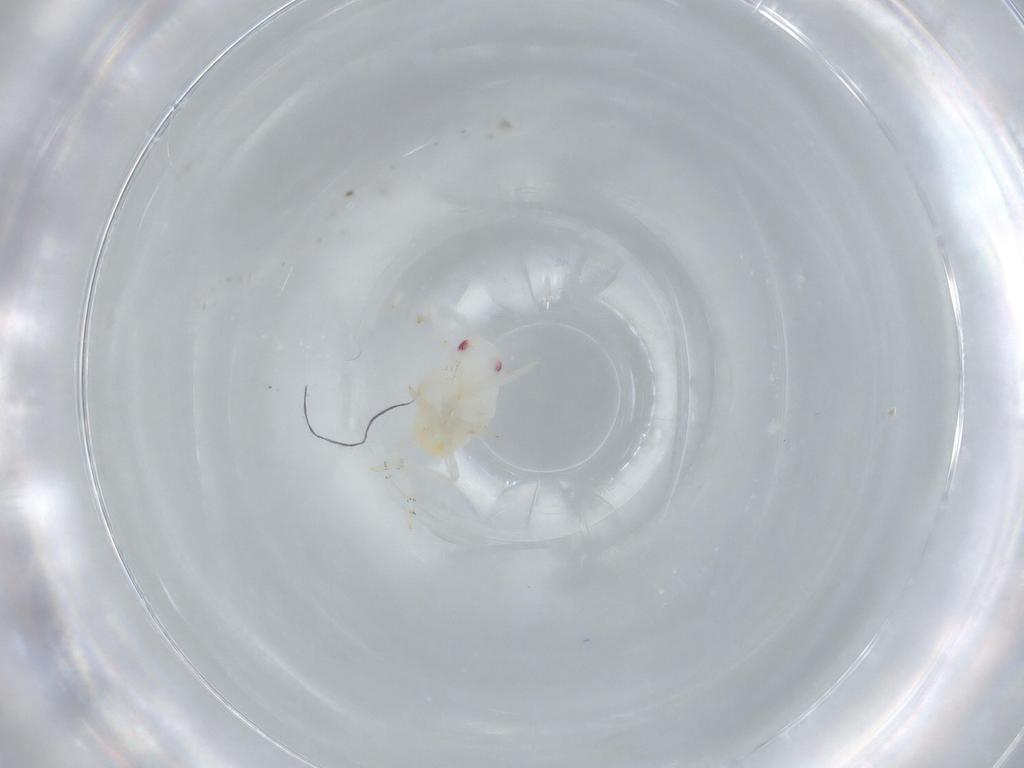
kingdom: Animalia
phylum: Arthropoda
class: Insecta
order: Hemiptera
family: Flatidae
